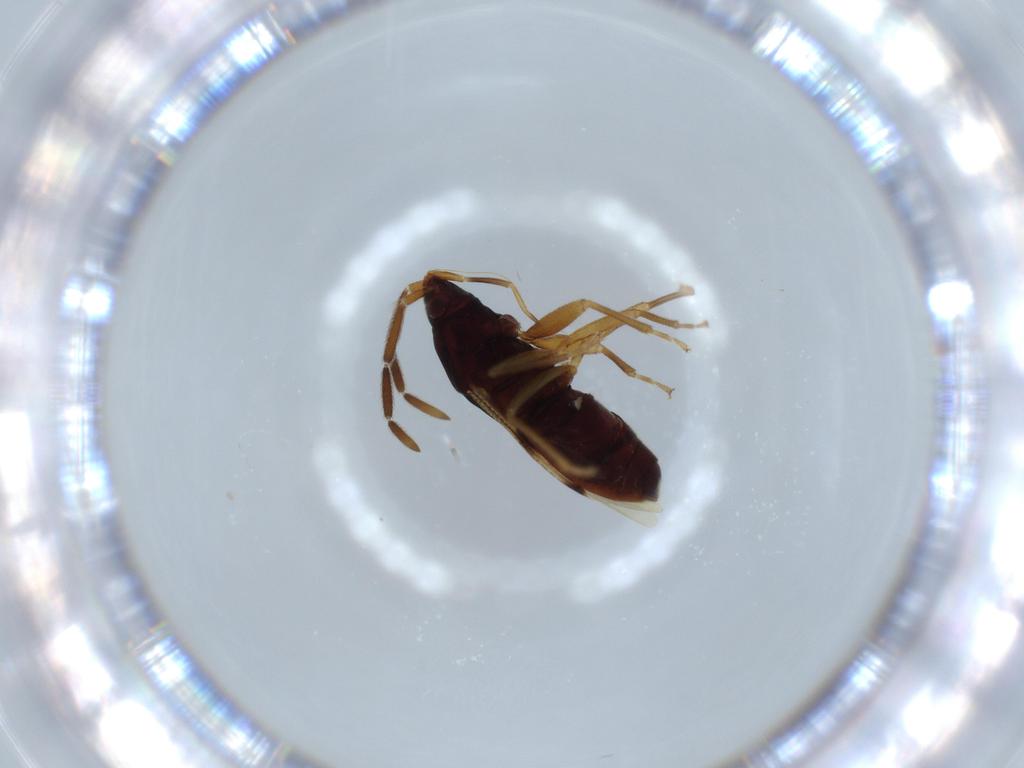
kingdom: Animalia
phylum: Arthropoda
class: Insecta
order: Hemiptera
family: Rhyparochromidae
